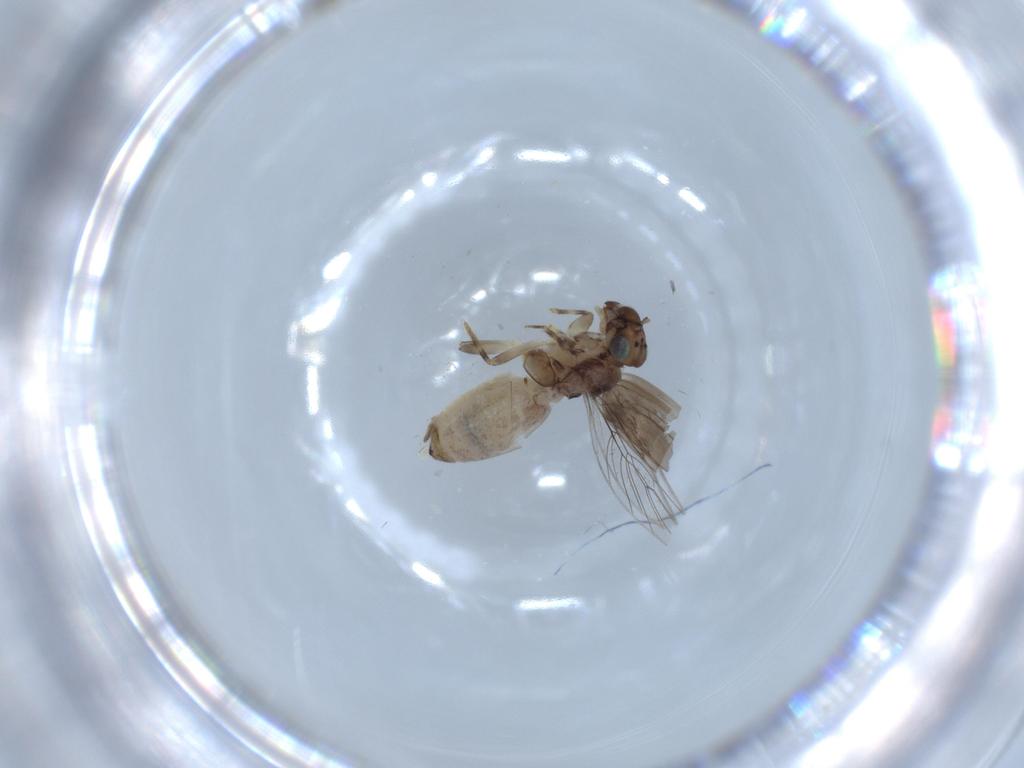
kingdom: Animalia
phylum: Arthropoda
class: Insecta
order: Psocodea
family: Lepidopsocidae
